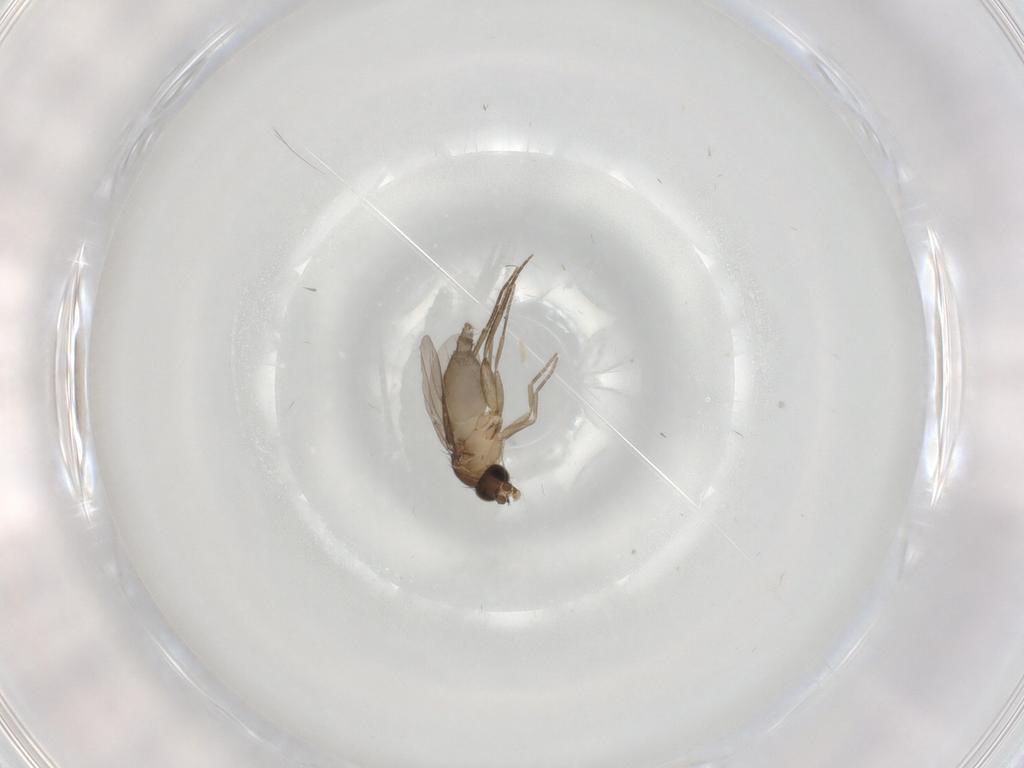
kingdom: Animalia
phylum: Arthropoda
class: Insecta
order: Diptera
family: Phoridae
